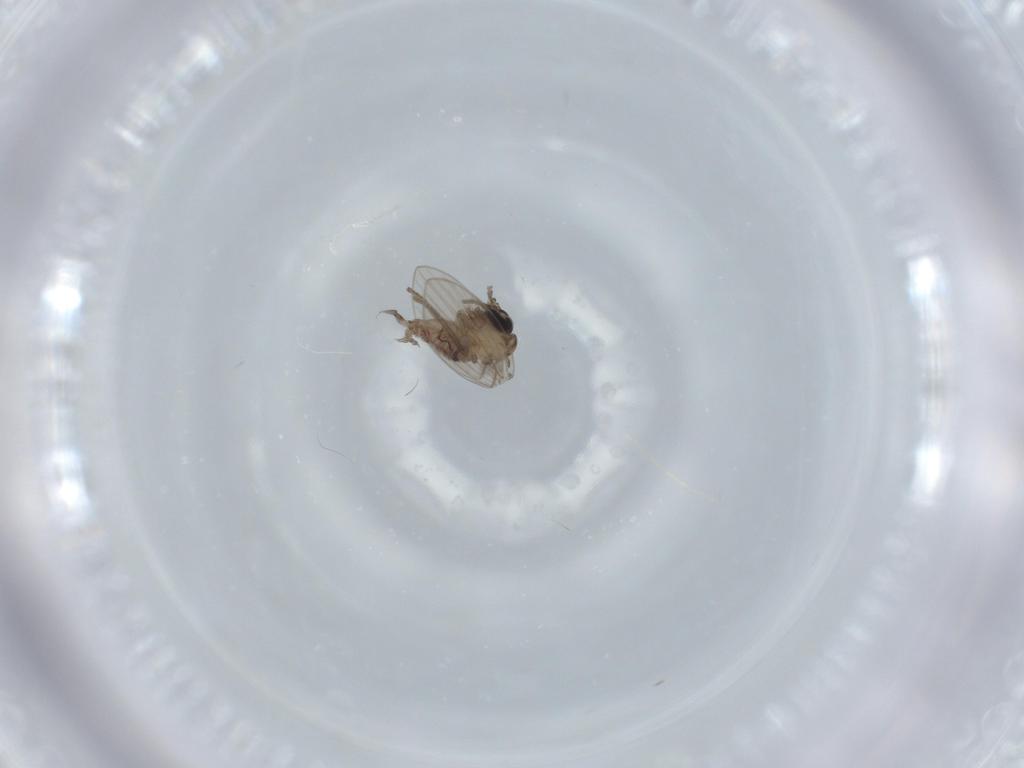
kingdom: Animalia
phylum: Arthropoda
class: Insecta
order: Diptera
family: Psychodidae
